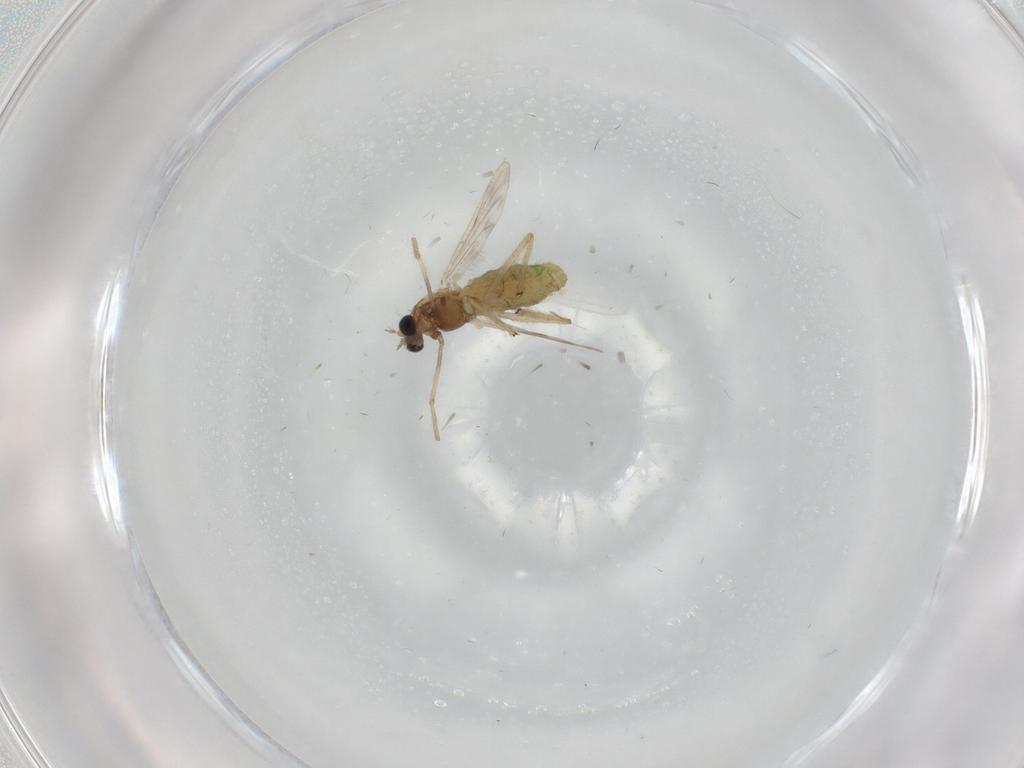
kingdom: Animalia
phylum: Arthropoda
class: Insecta
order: Diptera
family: Chironomidae
